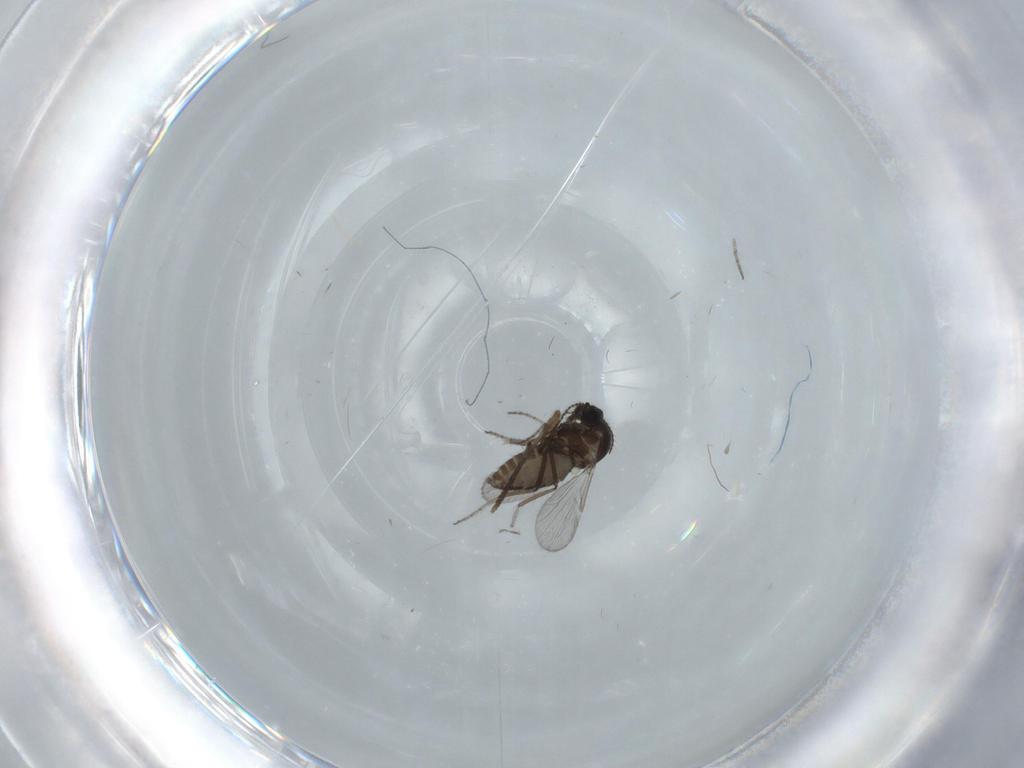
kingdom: Animalia
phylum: Arthropoda
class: Insecta
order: Diptera
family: Ceratopogonidae
